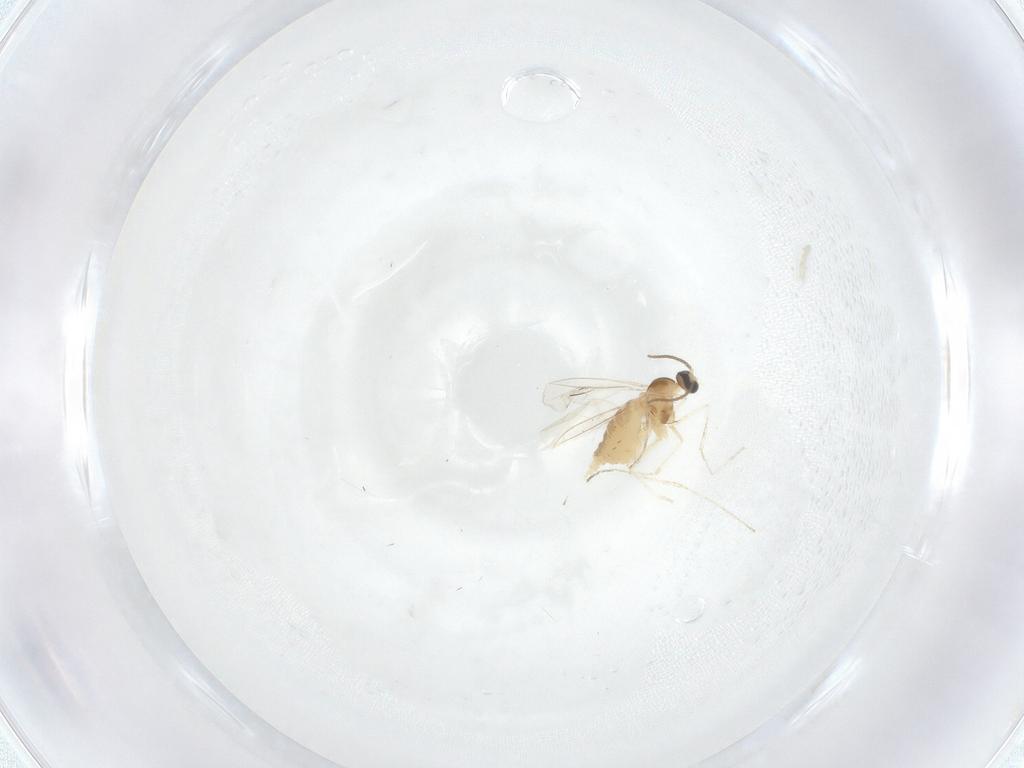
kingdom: Animalia
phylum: Arthropoda
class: Insecta
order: Diptera
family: Cecidomyiidae
